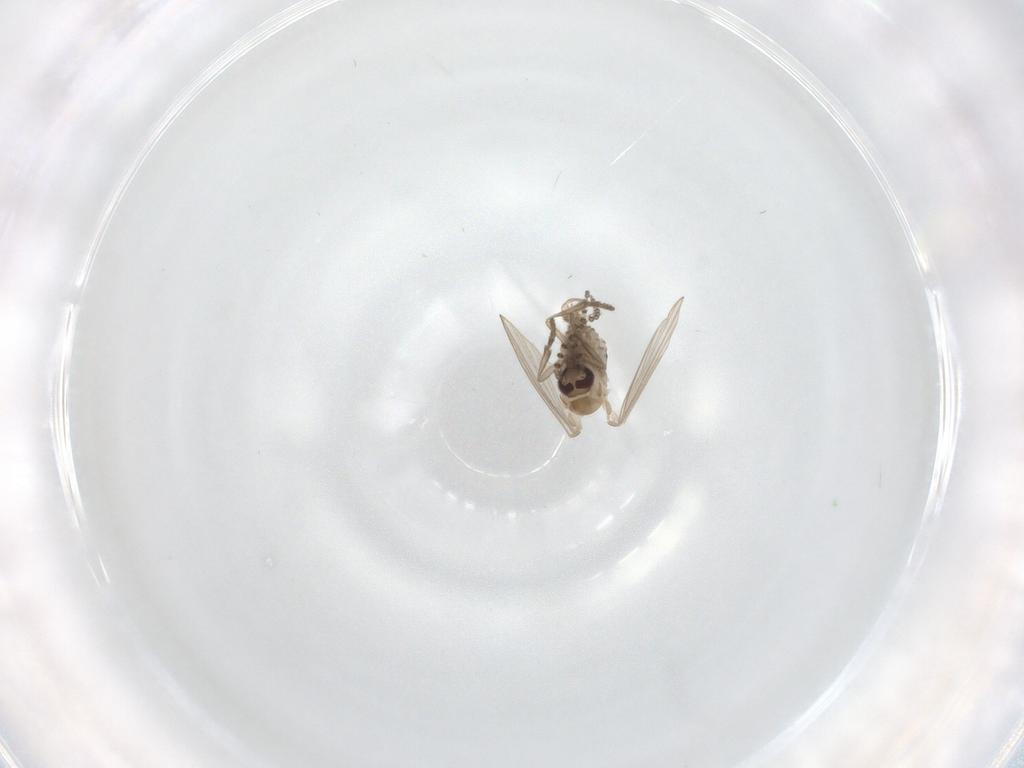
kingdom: Animalia
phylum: Arthropoda
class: Insecta
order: Diptera
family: Psychodidae
